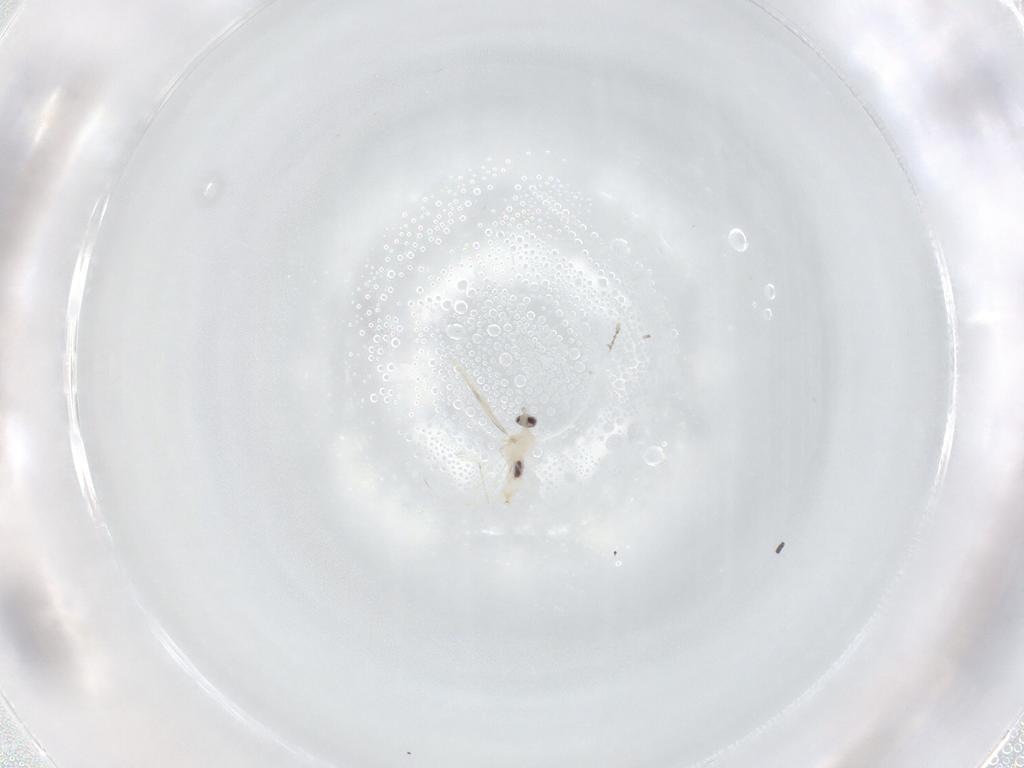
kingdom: Animalia
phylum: Arthropoda
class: Insecta
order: Diptera
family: Cecidomyiidae
